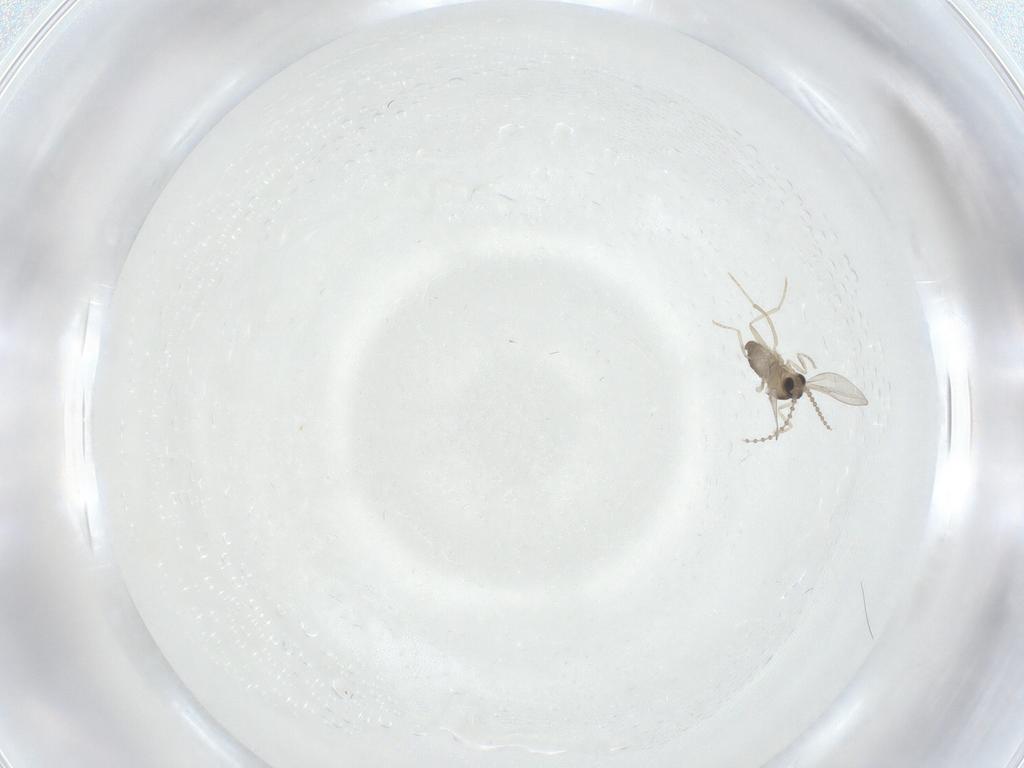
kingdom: Animalia
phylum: Arthropoda
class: Insecta
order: Diptera
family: Cecidomyiidae
